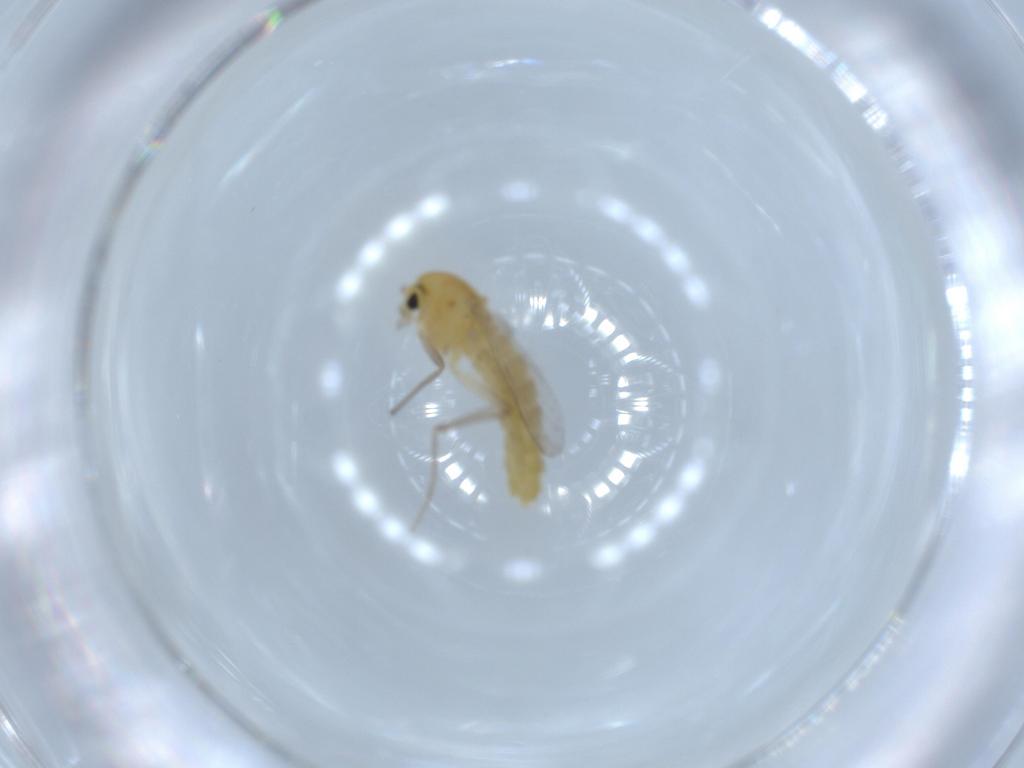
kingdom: Animalia
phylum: Arthropoda
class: Insecta
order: Diptera
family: Chironomidae
